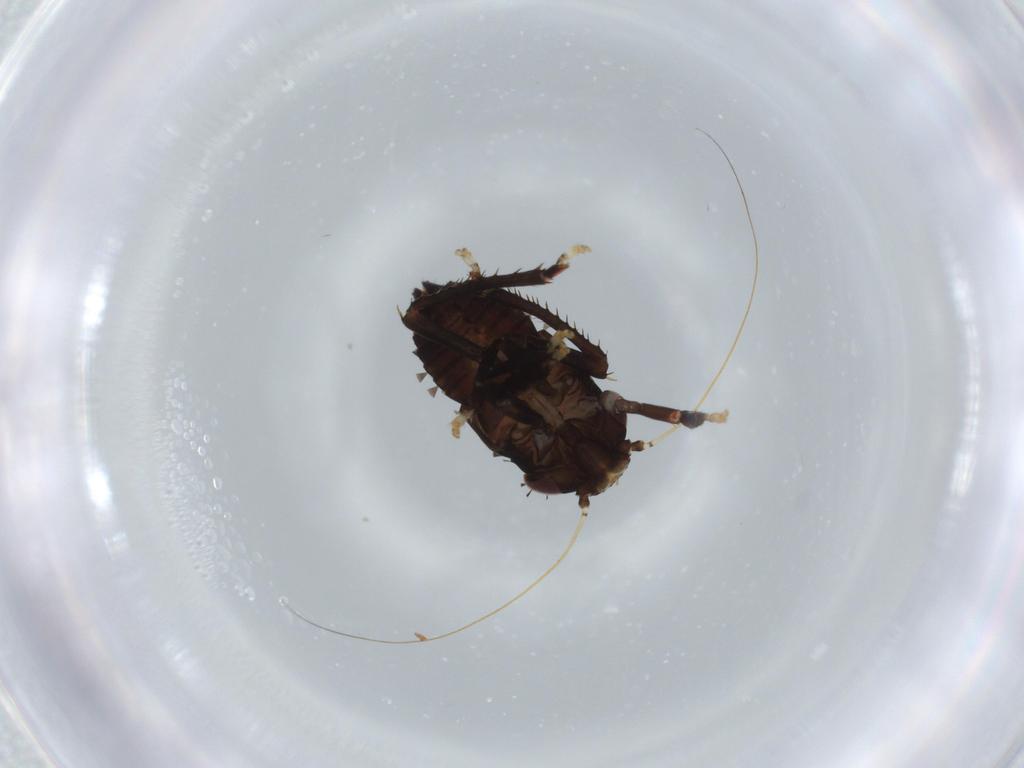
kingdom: Animalia
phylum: Arthropoda
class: Insecta
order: Hemiptera
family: Cicadellidae
